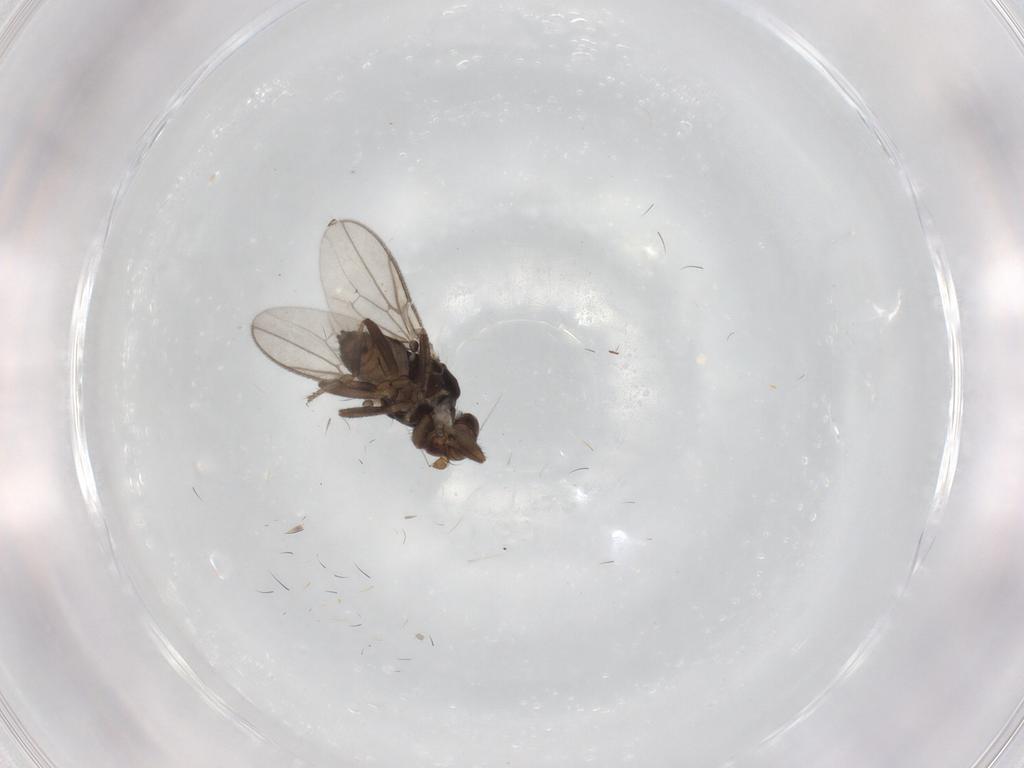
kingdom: Animalia
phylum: Arthropoda
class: Insecta
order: Diptera
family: Sphaeroceridae
